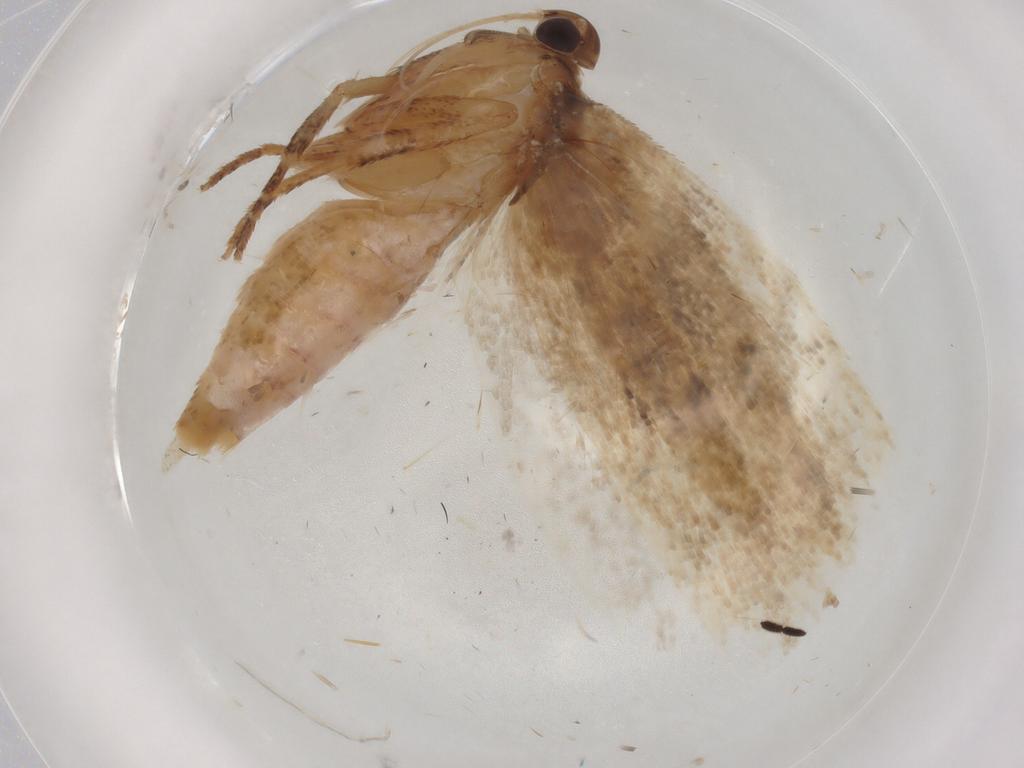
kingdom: Animalia
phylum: Arthropoda
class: Insecta
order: Lepidoptera
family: Gelechiidae
